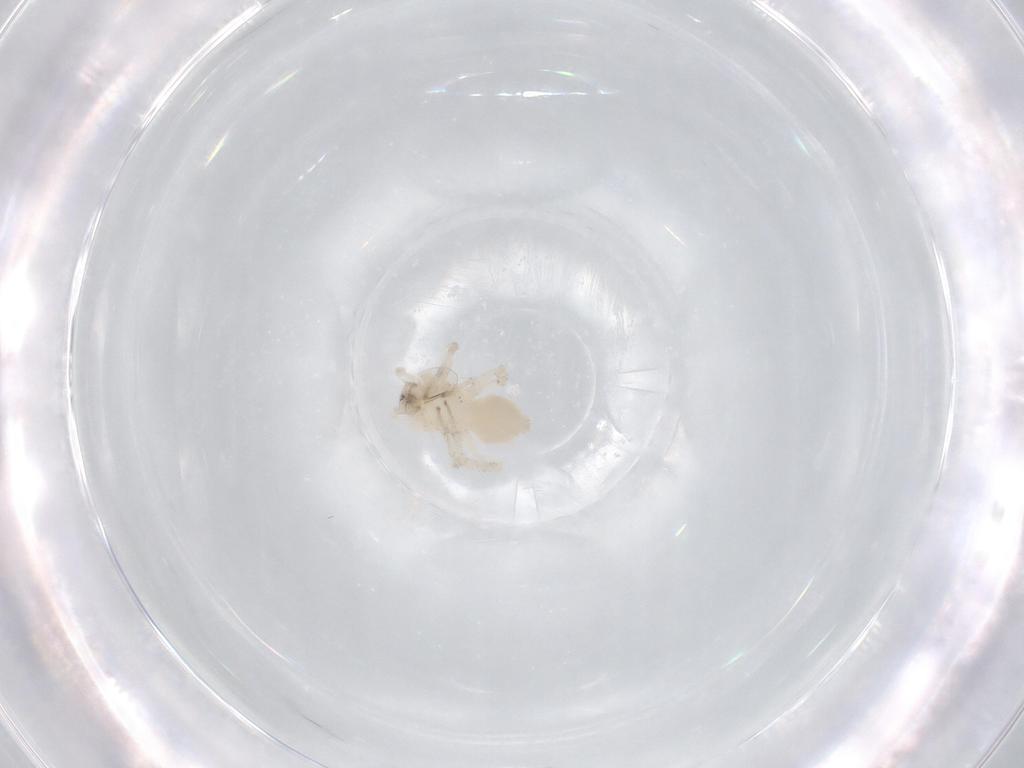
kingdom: Animalia
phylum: Arthropoda
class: Arachnida
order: Araneae
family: Anyphaenidae
